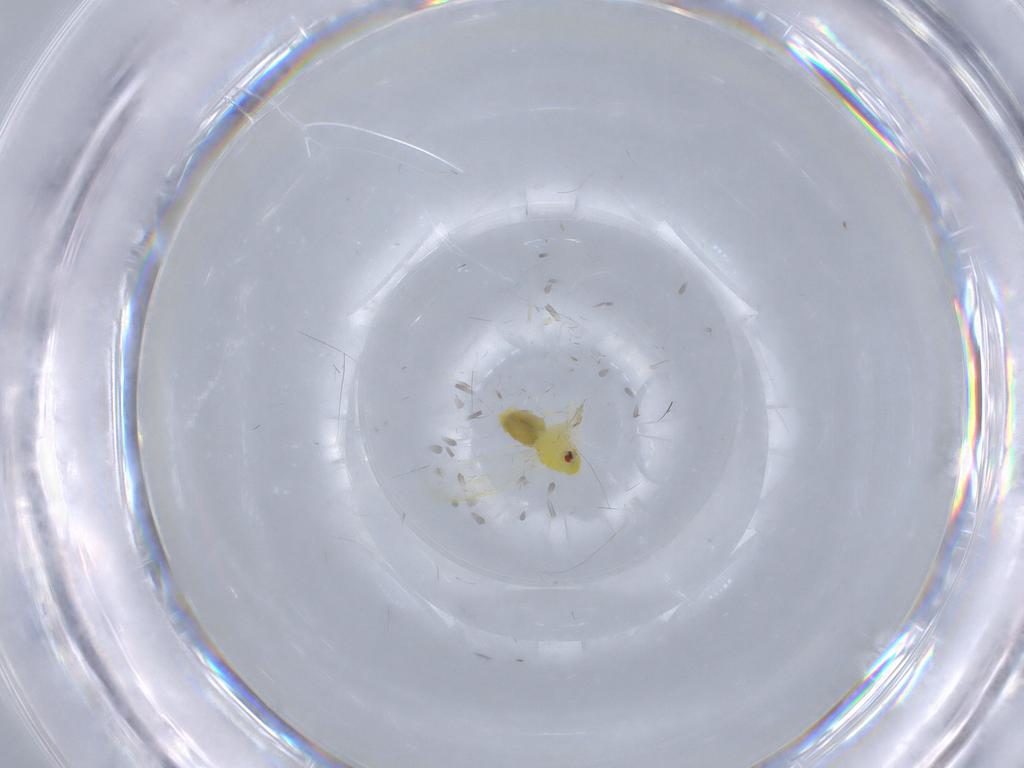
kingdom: Animalia
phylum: Arthropoda
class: Insecta
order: Hemiptera
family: Aleyrodidae
